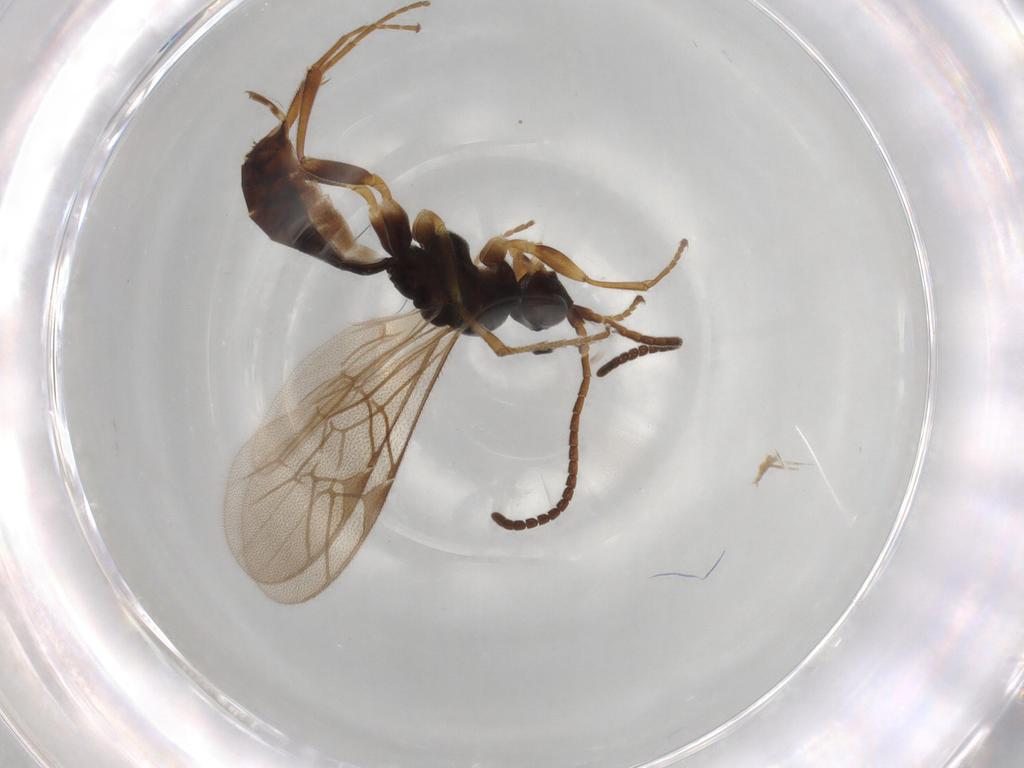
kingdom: Animalia
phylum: Arthropoda
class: Insecta
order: Hymenoptera
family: Ichneumonidae
